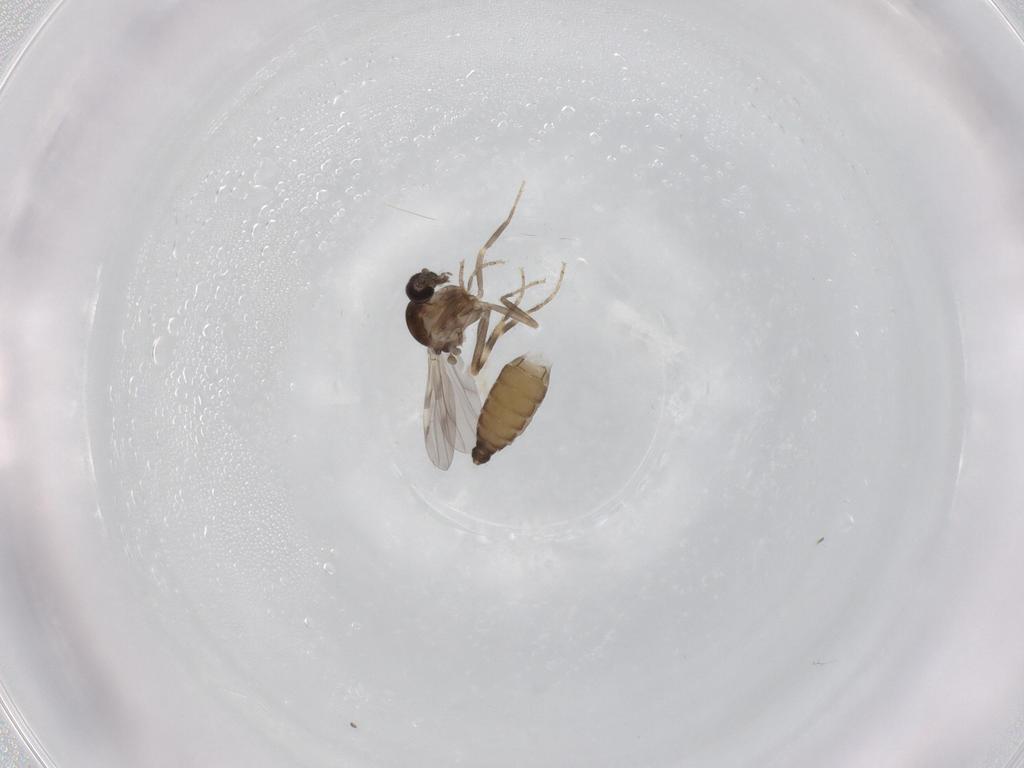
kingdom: Animalia
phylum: Arthropoda
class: Insecta
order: Diptera
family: Ceratopogonidae
